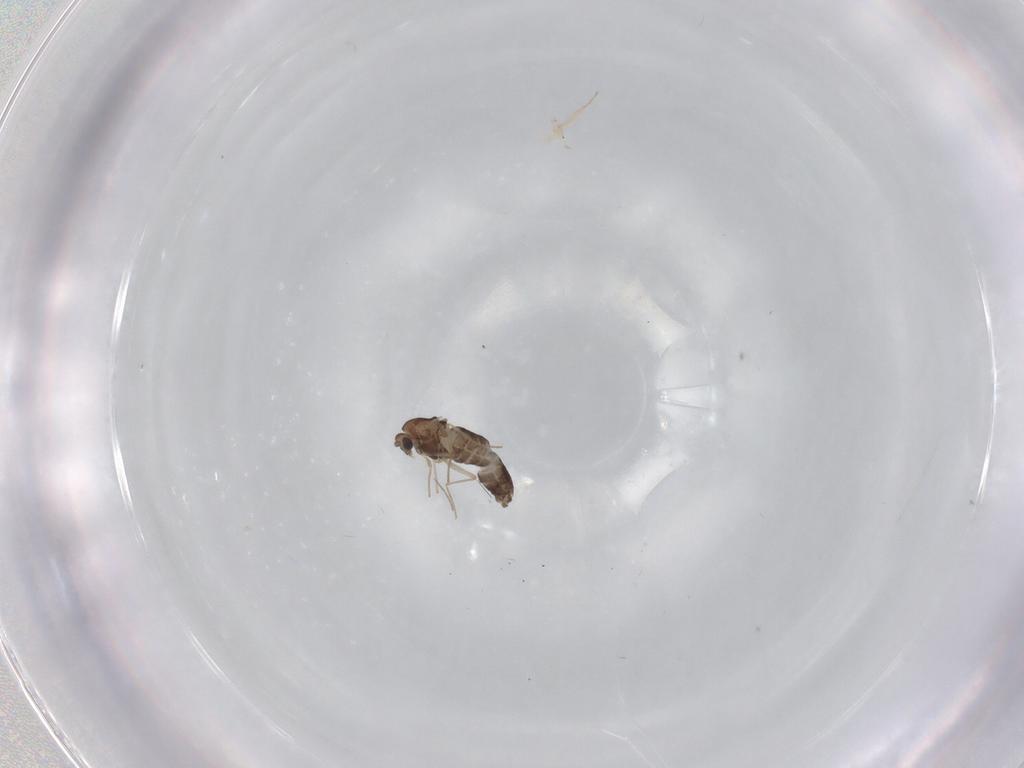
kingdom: Animalia
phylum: Arthropoda
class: Insecta
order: Diptera
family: Chironomidae
